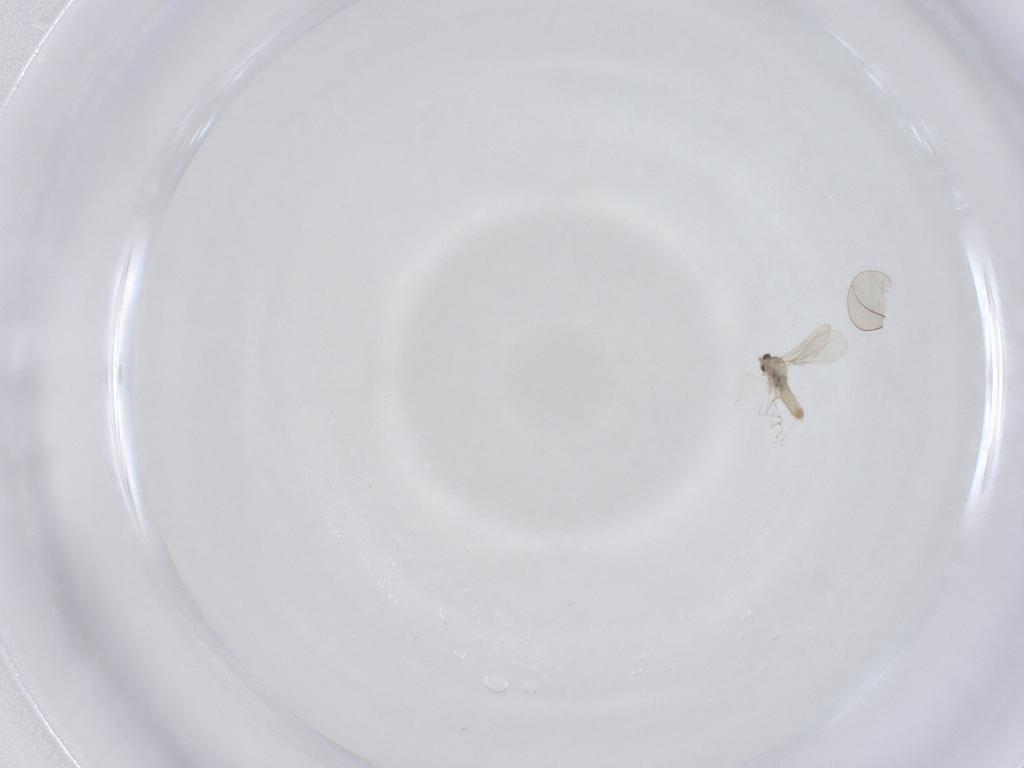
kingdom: Animalia
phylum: Arthropoda
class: Insecta
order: Diptera
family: Cecidomyiidae
